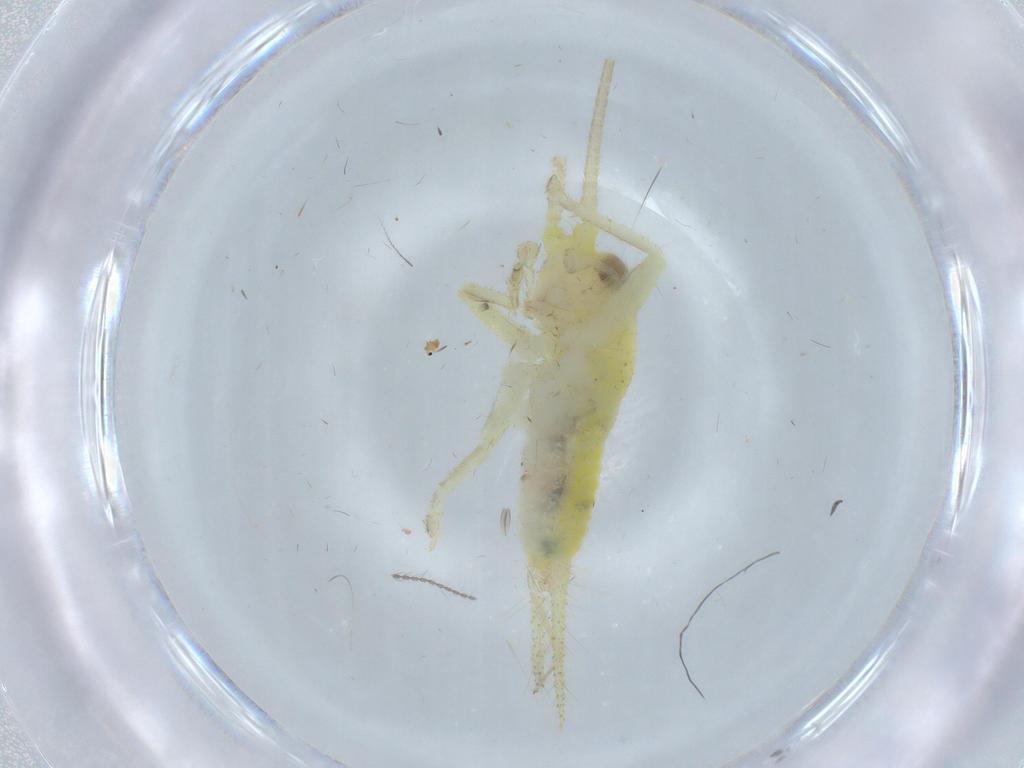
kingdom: Animalia
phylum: Arthropoda
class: Insecta
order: Orthoptera
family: Trigonidiidae
